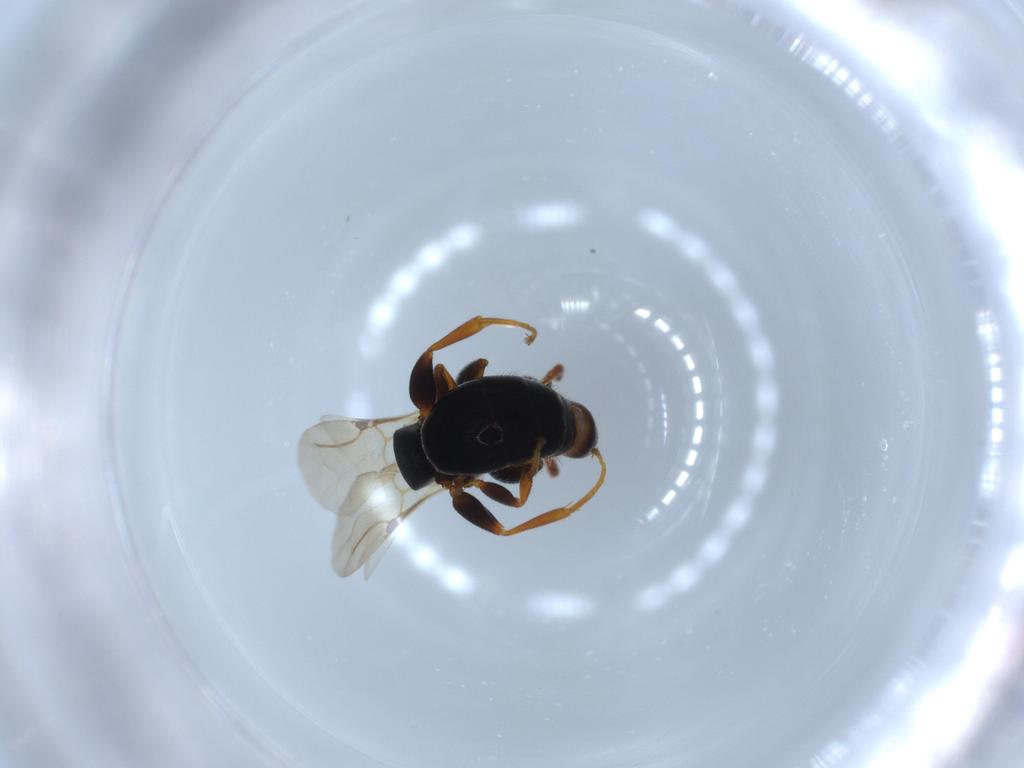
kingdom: Animalia
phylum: Arthropoda
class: Insecta
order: Hymenoptera
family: Bethylidae
